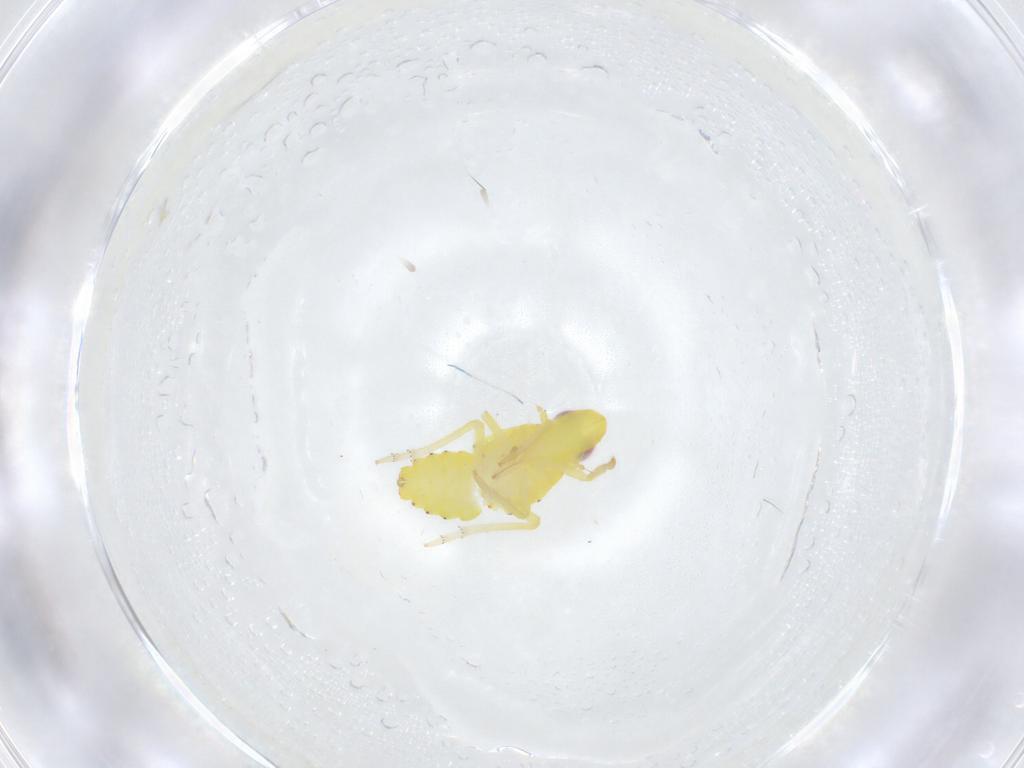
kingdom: Animalia
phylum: Arthropoda
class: Insecta
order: Hemiptera
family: Tropiduchidae
